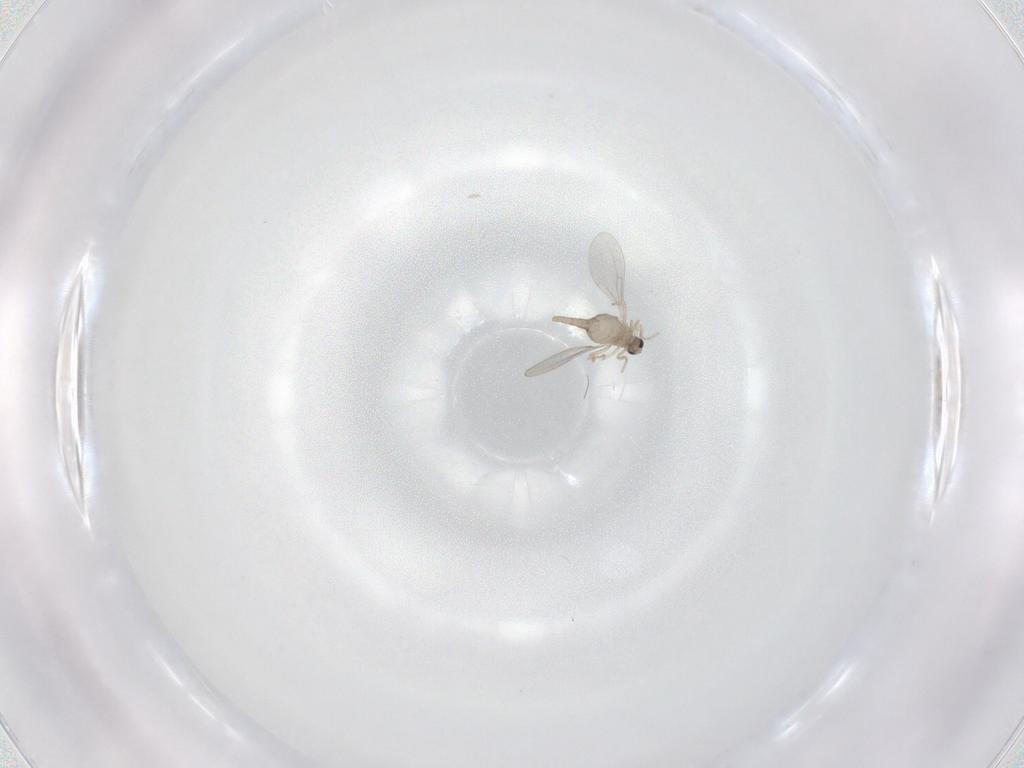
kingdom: Animalia
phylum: Arthropoda
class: Insecta
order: Diptera
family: Cecidomyiidae
